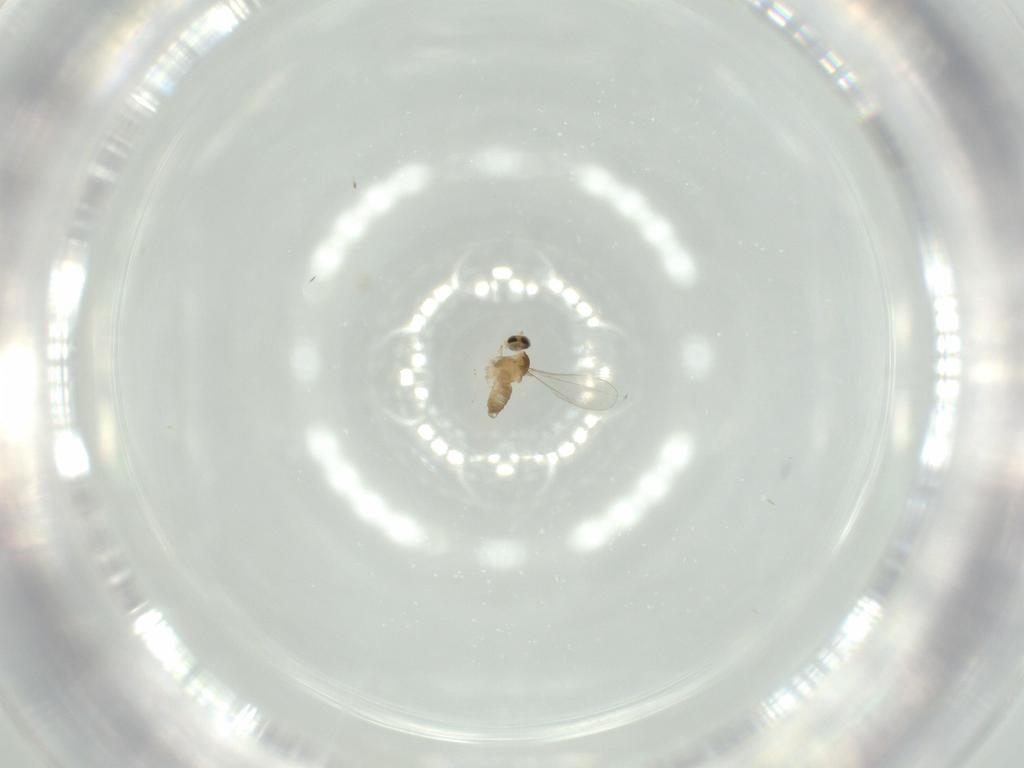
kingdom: Animalia
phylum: Arthropoda
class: Insecta
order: Diptera
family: Cecidomyiidae
